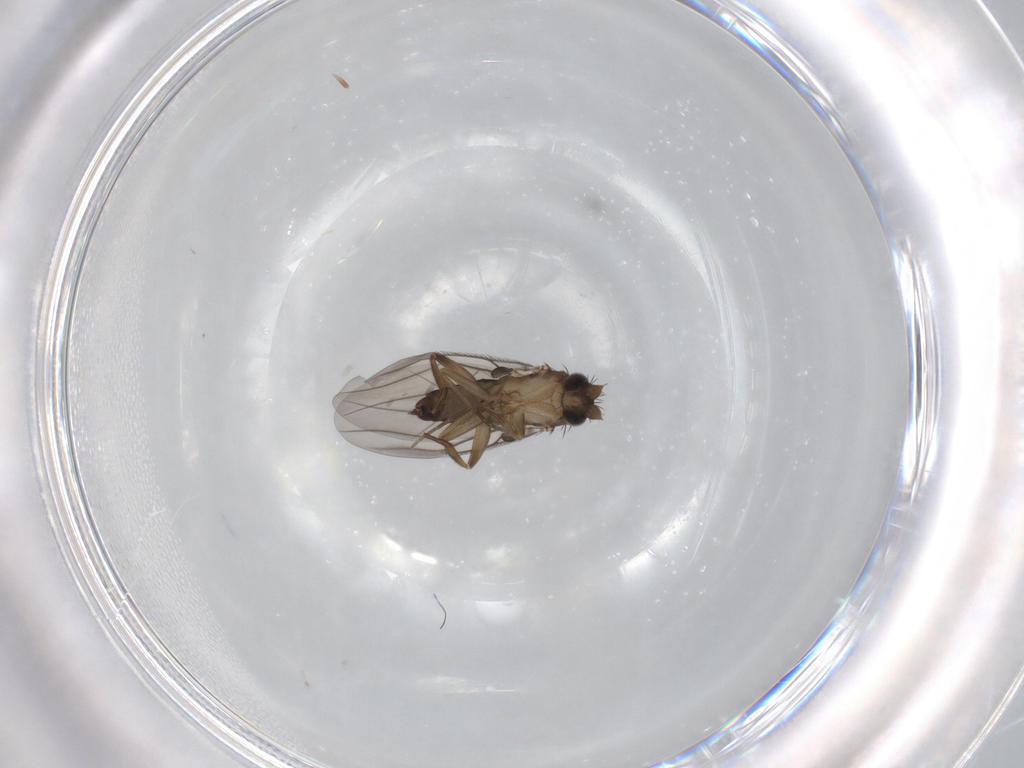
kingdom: Animalia
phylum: Arthropoda
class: Insecta
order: Diptera
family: Phoridae
